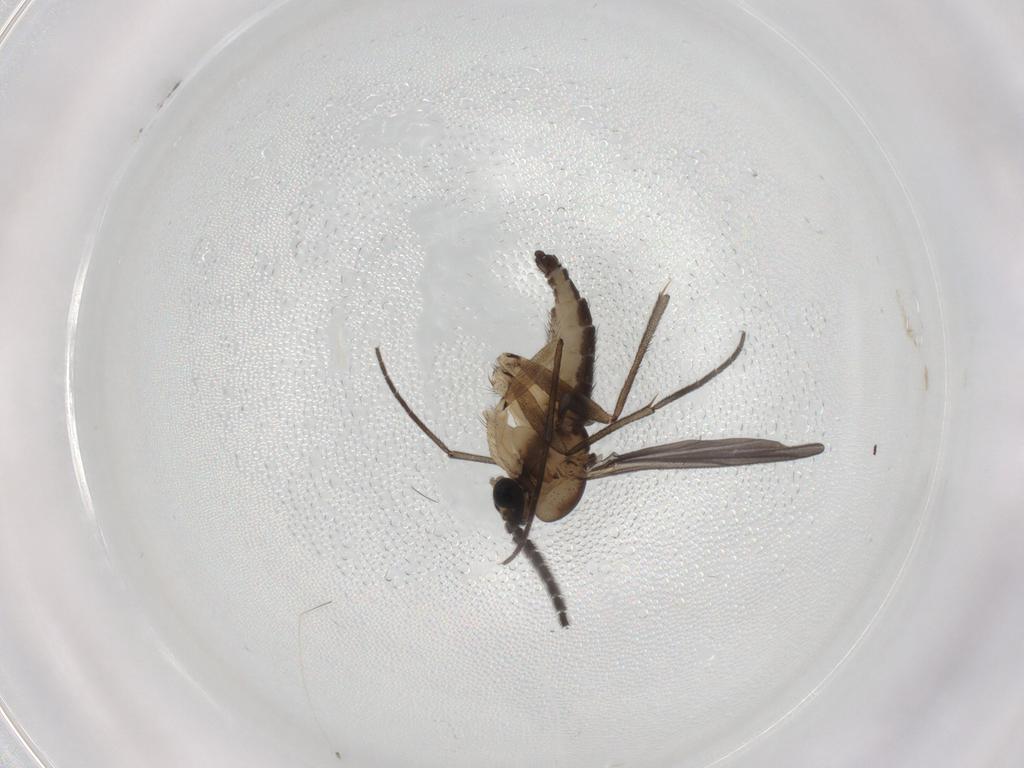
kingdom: Animalia
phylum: Arthropoda
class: Insecta
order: Diptera
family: Sciaridae
